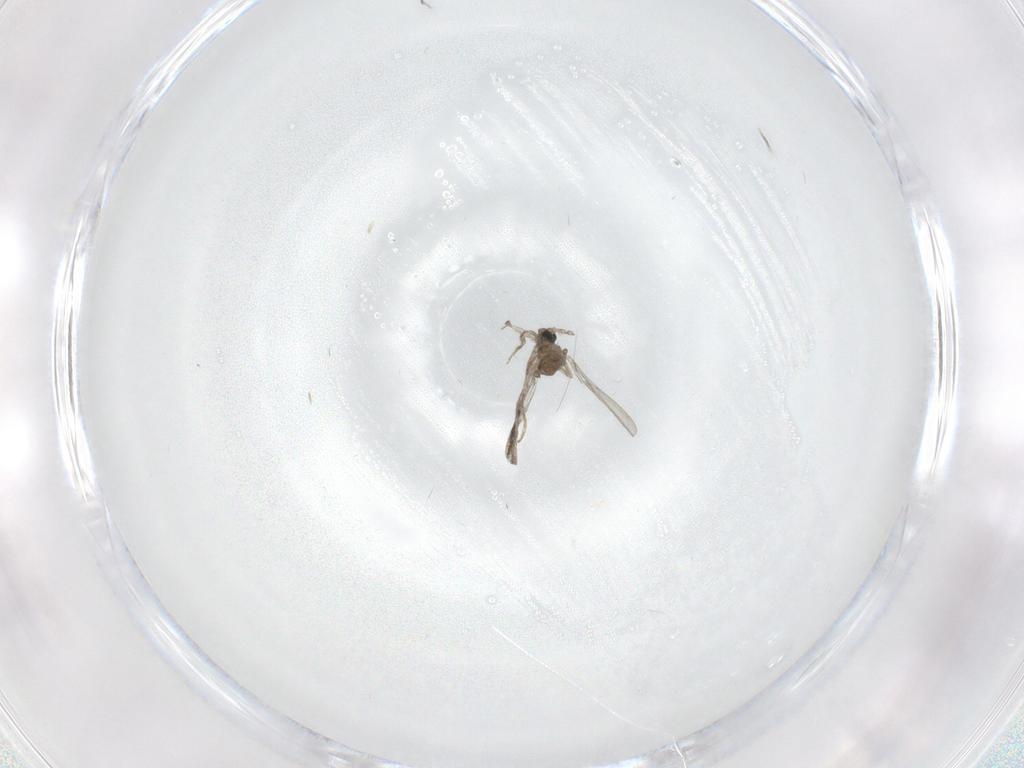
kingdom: Animalia
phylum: Arthropoda
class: Insecta
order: Diptera
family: Cecidomyiidae
